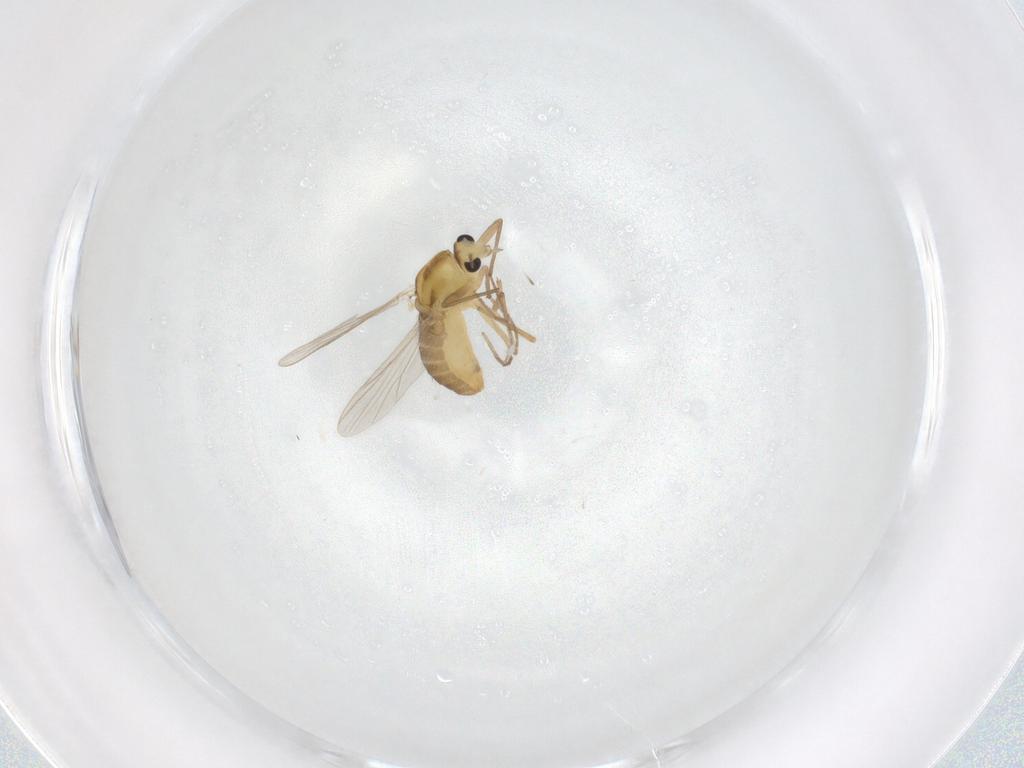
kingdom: Animalia
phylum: Arthropoda
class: Insecta
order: Diptera
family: Chironomidae
